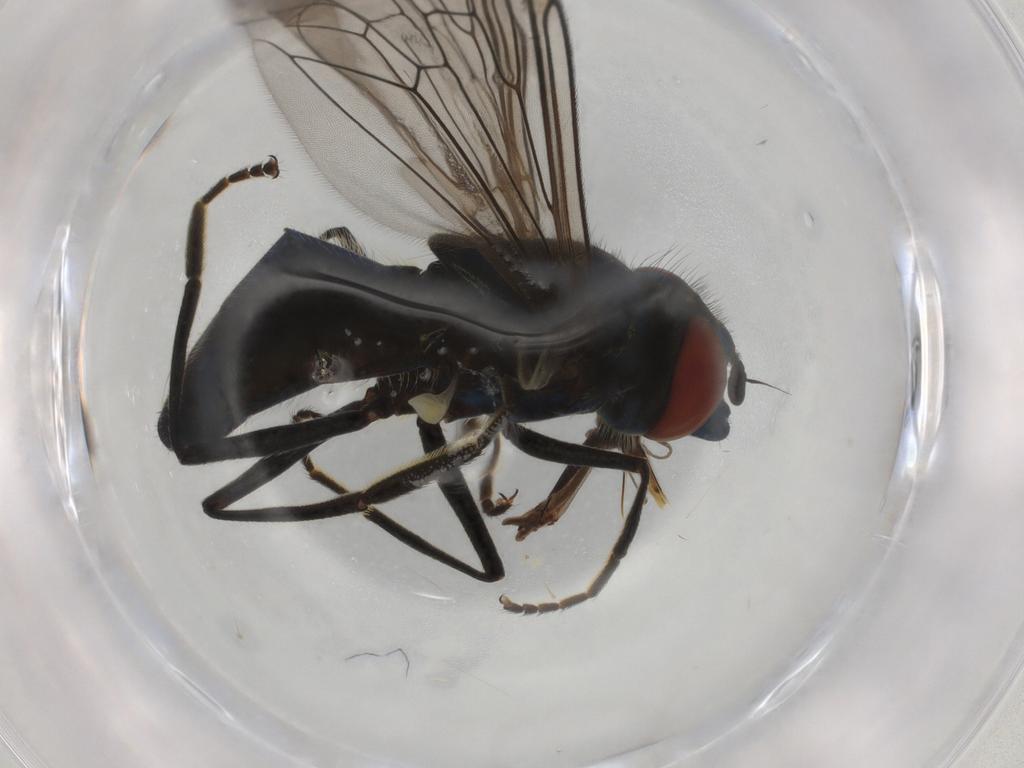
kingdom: Animalia
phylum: Arthropoda
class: Insecta
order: Diptera
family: Syrphidae
